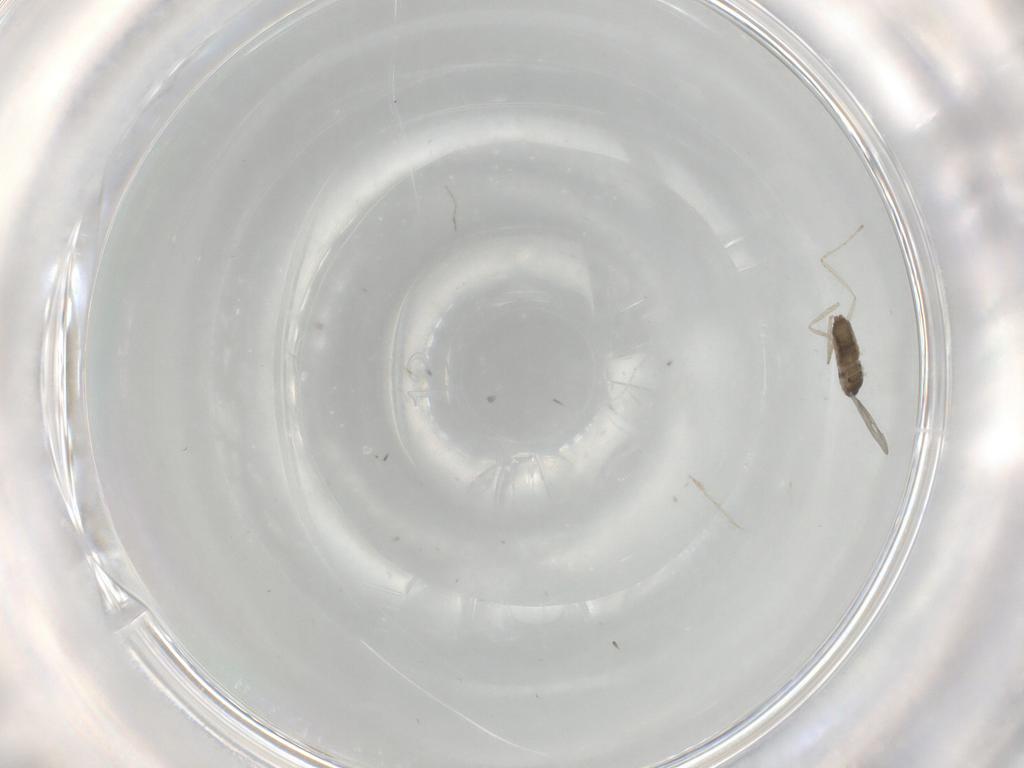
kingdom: Animalia
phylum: Arthropoda
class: Insecta
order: Diptera
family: Cecidomyiidae
